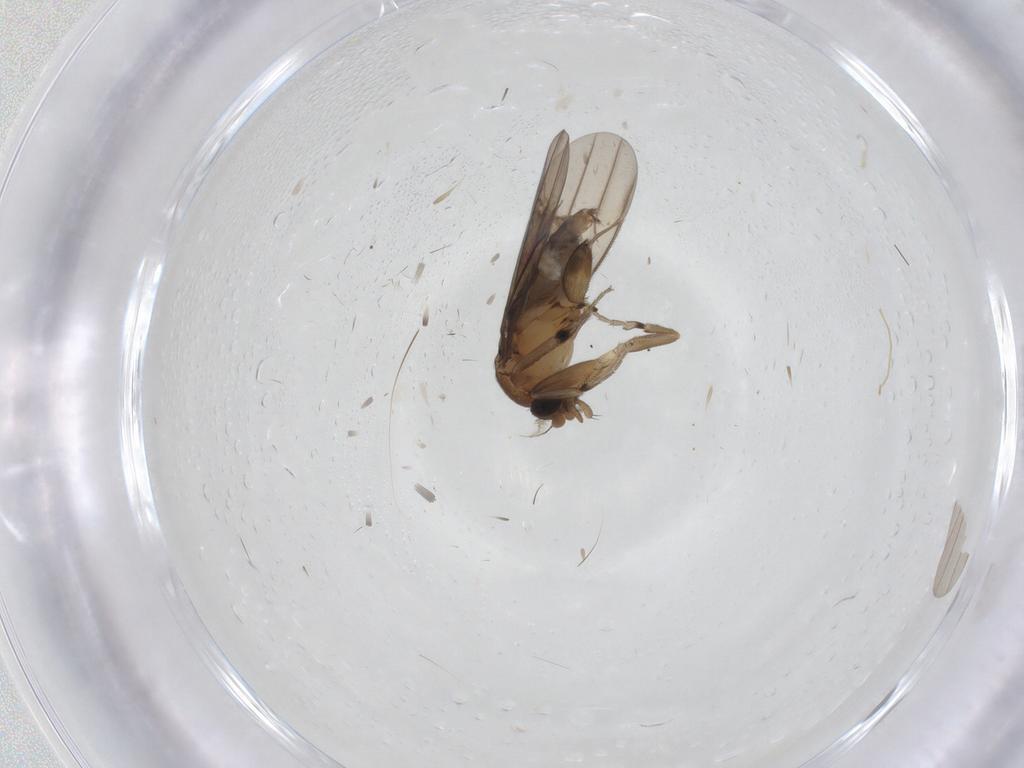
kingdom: Animalia
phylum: Arthropoda
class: Insecta
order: Diptera
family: Phoridae
